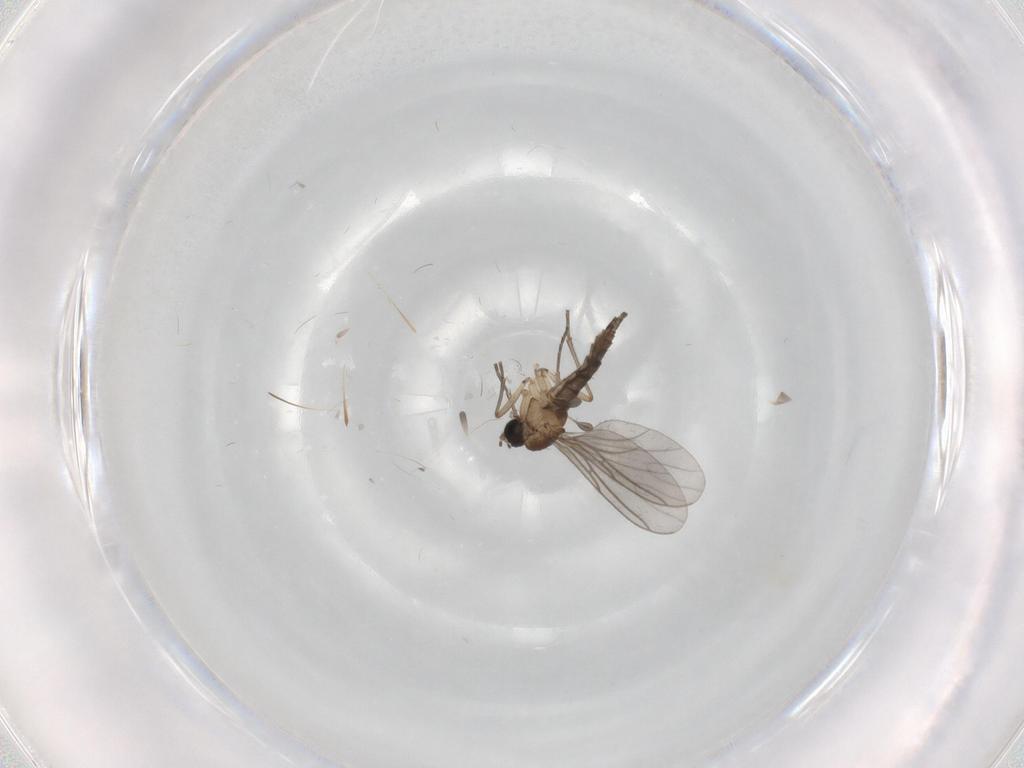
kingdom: Animalia
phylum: Arthropoda
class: Insecta
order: Diptera
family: Sciaridae
